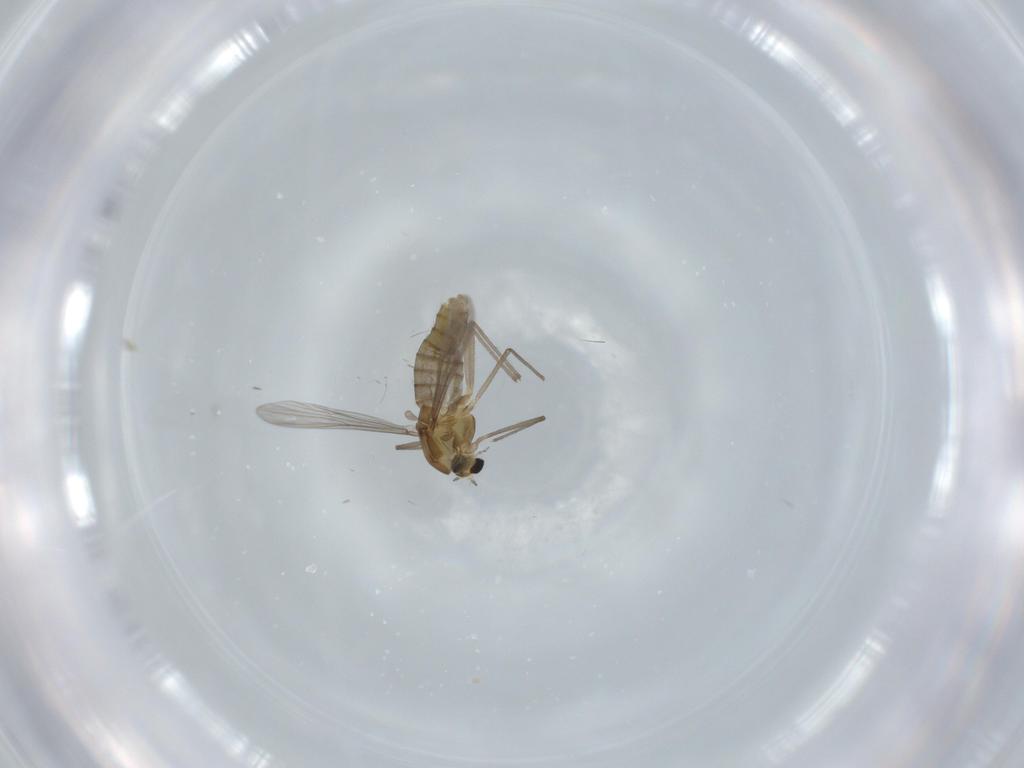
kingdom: Animalia
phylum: Arthropoda
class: Insecta
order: Diptera
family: Chironomidae
